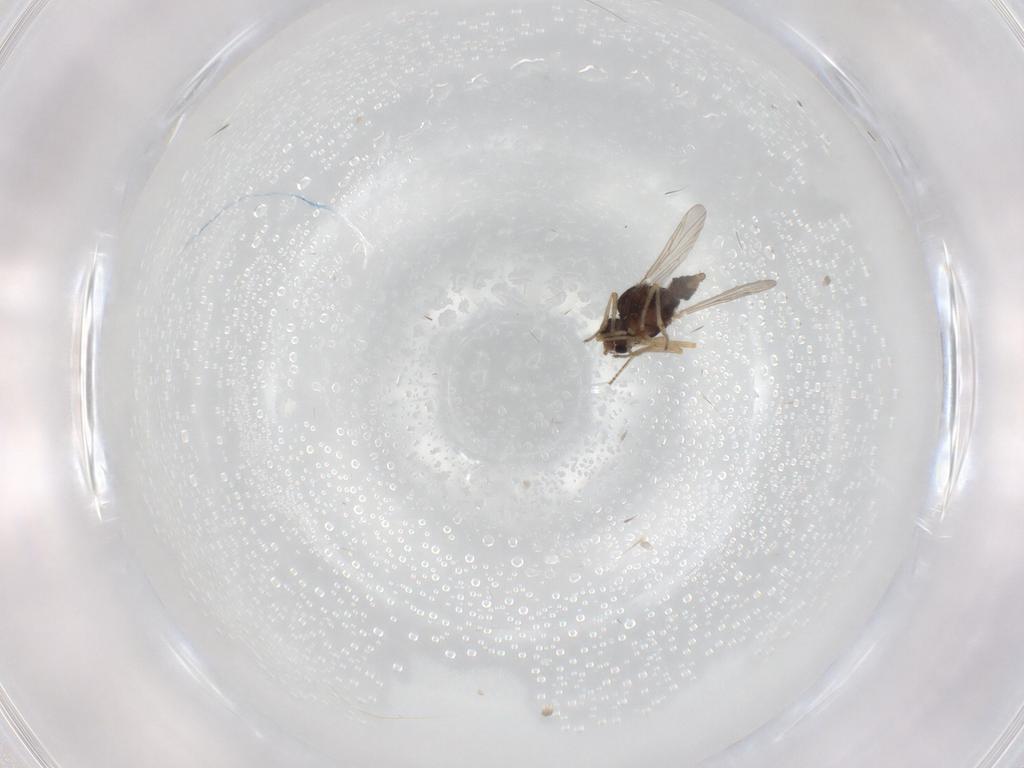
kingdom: Animalia
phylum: Arthropoda
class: Insecta
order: Diptera
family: Ceratopogonidae
